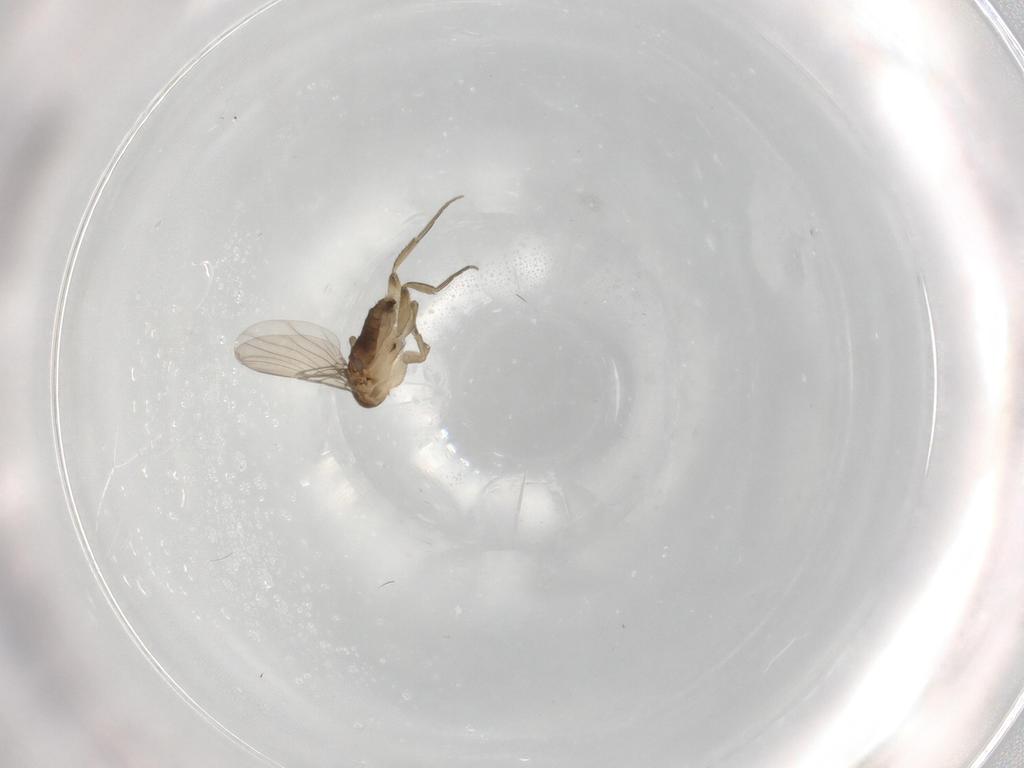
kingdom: Animalia
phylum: Arthropoda
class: Insecta
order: Diptera
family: Phoridae
